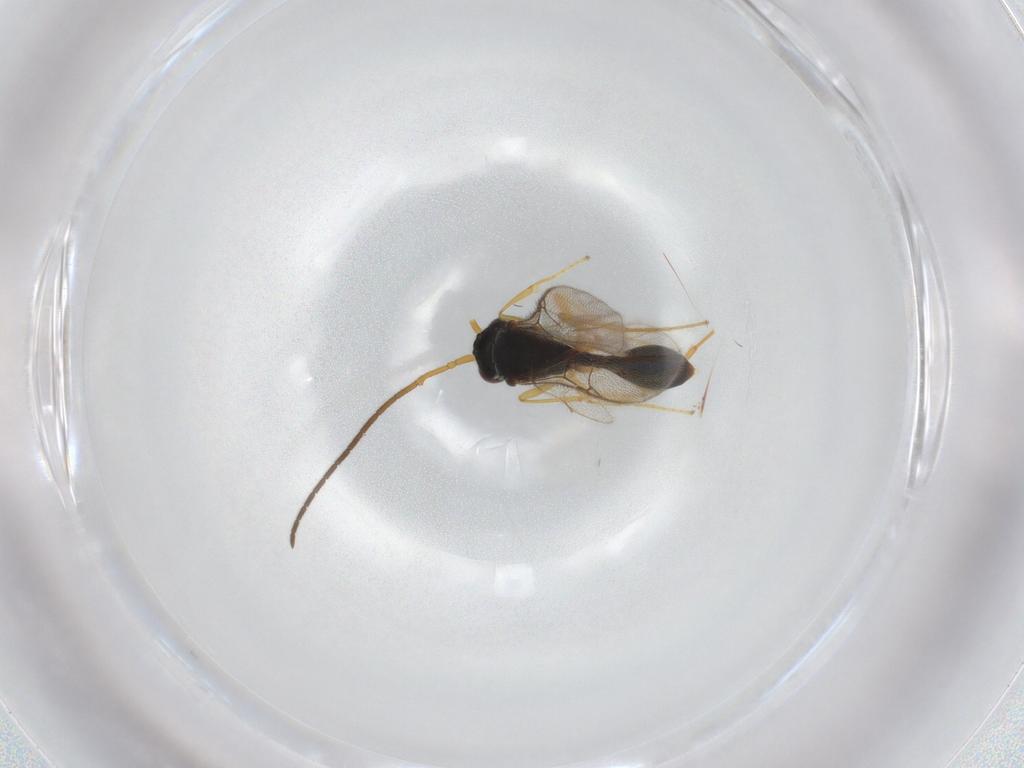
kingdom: Animalia
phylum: Arthropoda
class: Insecta
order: Hymenoptera
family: Diapriidae
